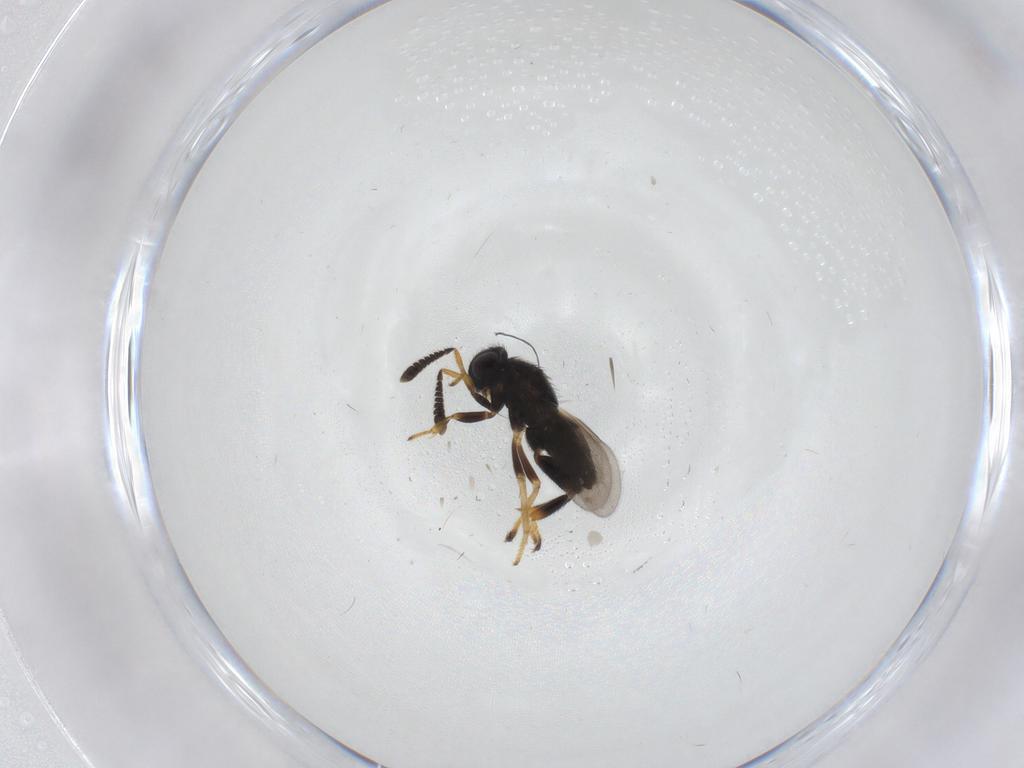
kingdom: Animalia
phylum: Arthropoda
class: Insecta
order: Hymenoptera
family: Encyrtidae
